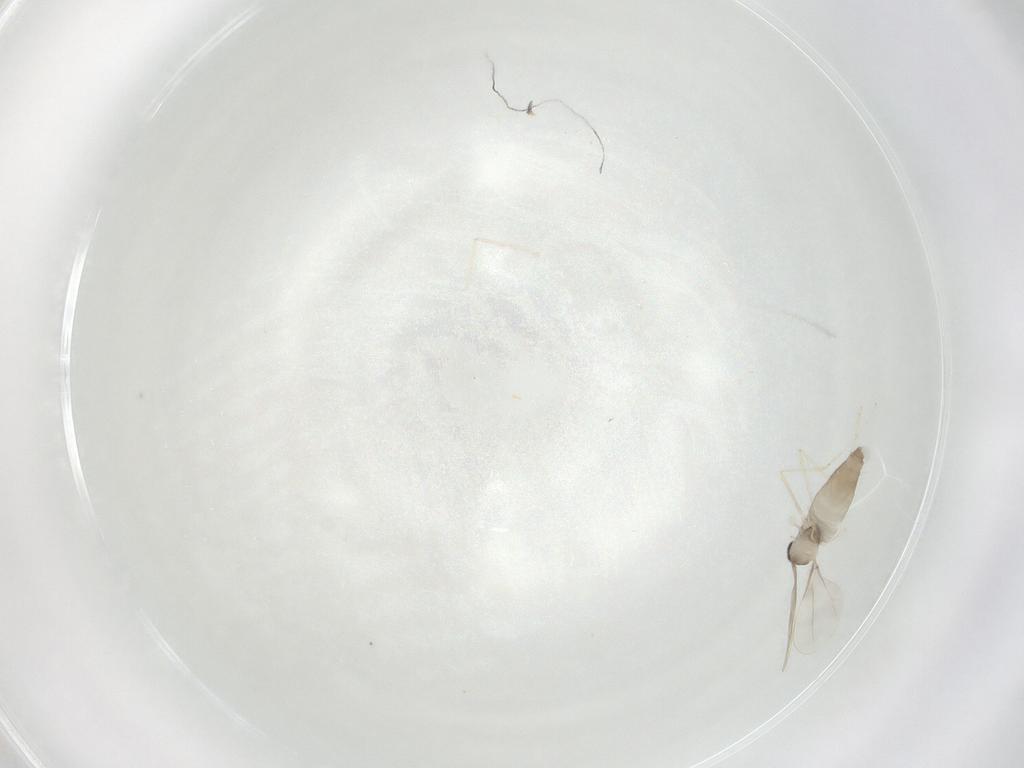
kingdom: Animalia
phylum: Arthropoda
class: Insecta
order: Diptera
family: Cecidomyiidae
